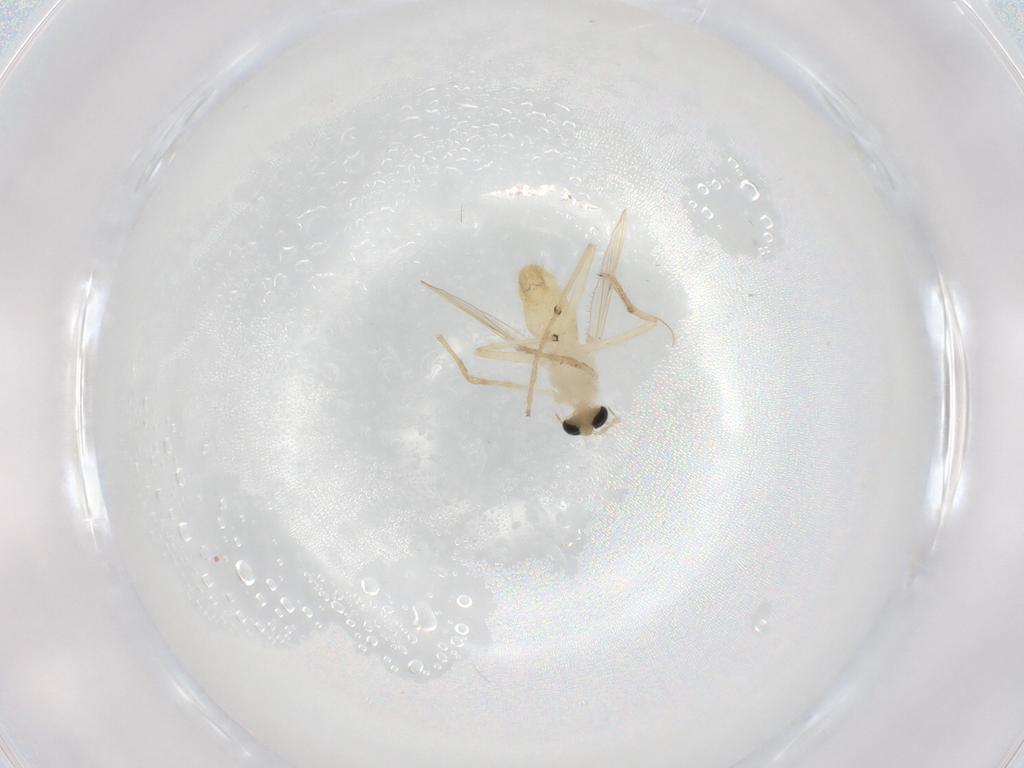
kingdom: Animalia
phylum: Arthropoda
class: Insecta
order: Diptera
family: Chironomidae
